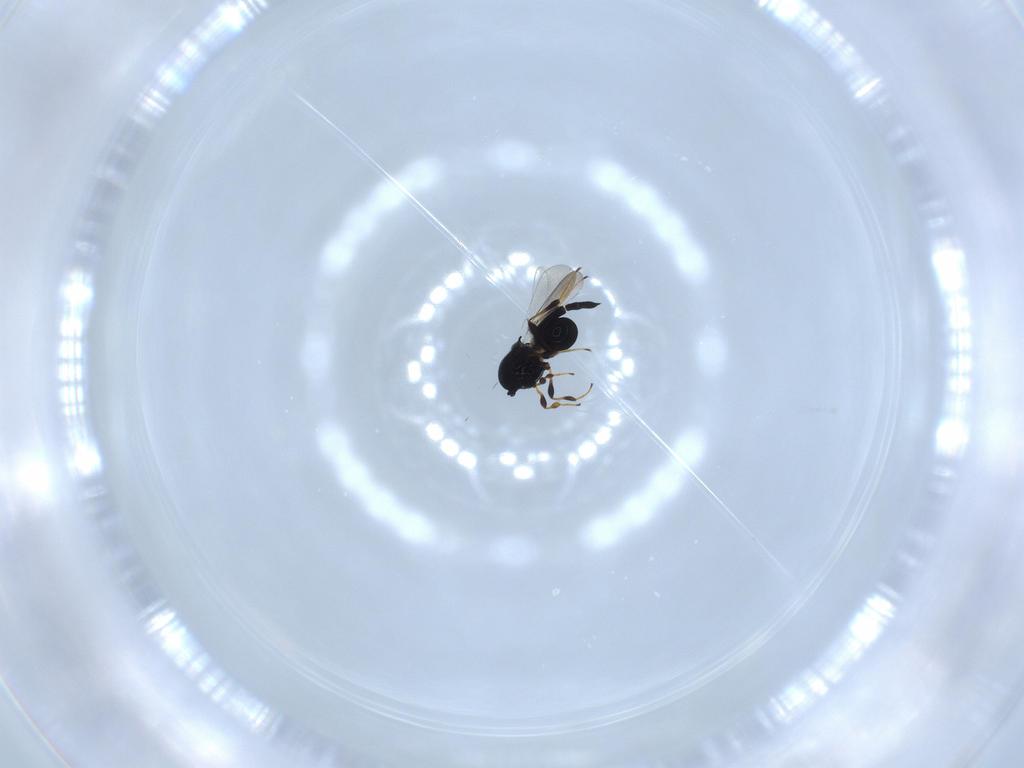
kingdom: Animalia
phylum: Arthropoda
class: Insecta
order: Hymenoptera
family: Platygastridae
